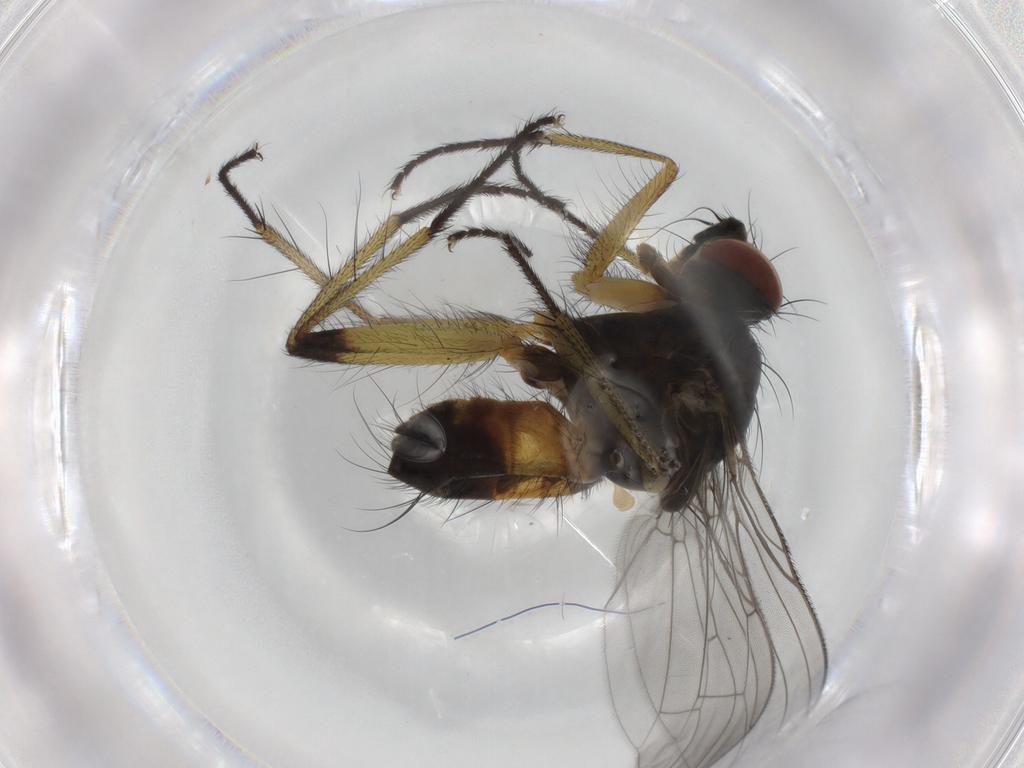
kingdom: Animalia
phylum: Arthropoda
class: Insecta
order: Diptera
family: Muscidae
